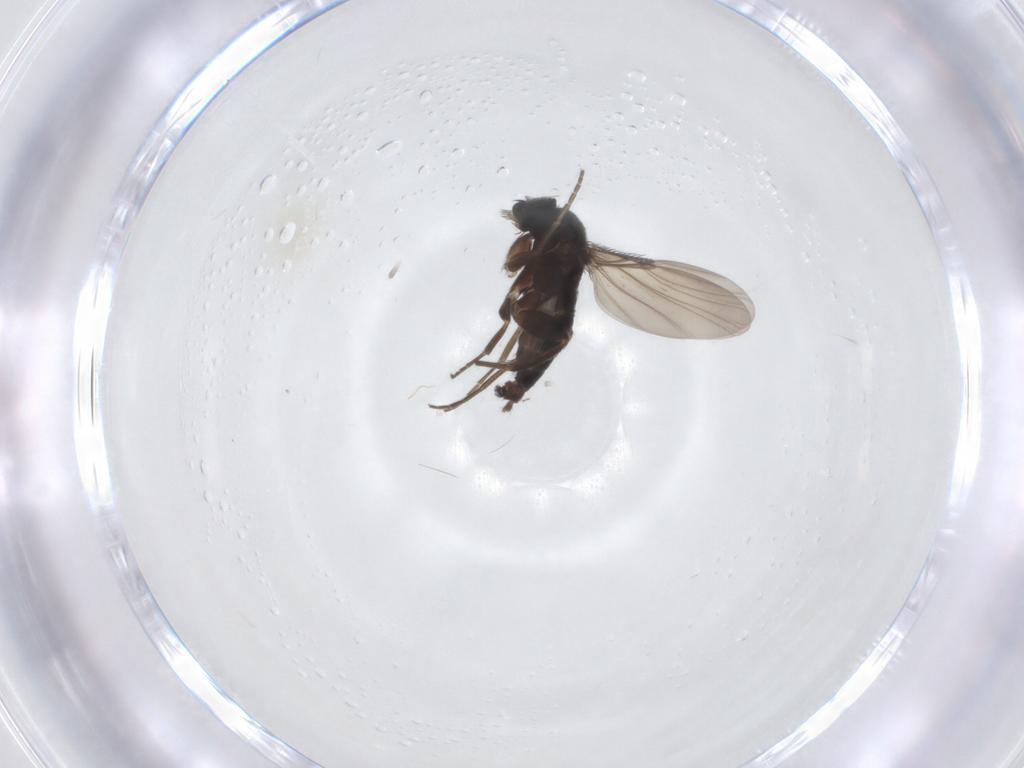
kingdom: Animalia
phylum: Arthropoda
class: Insecta
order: Diptera
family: Phoridae
